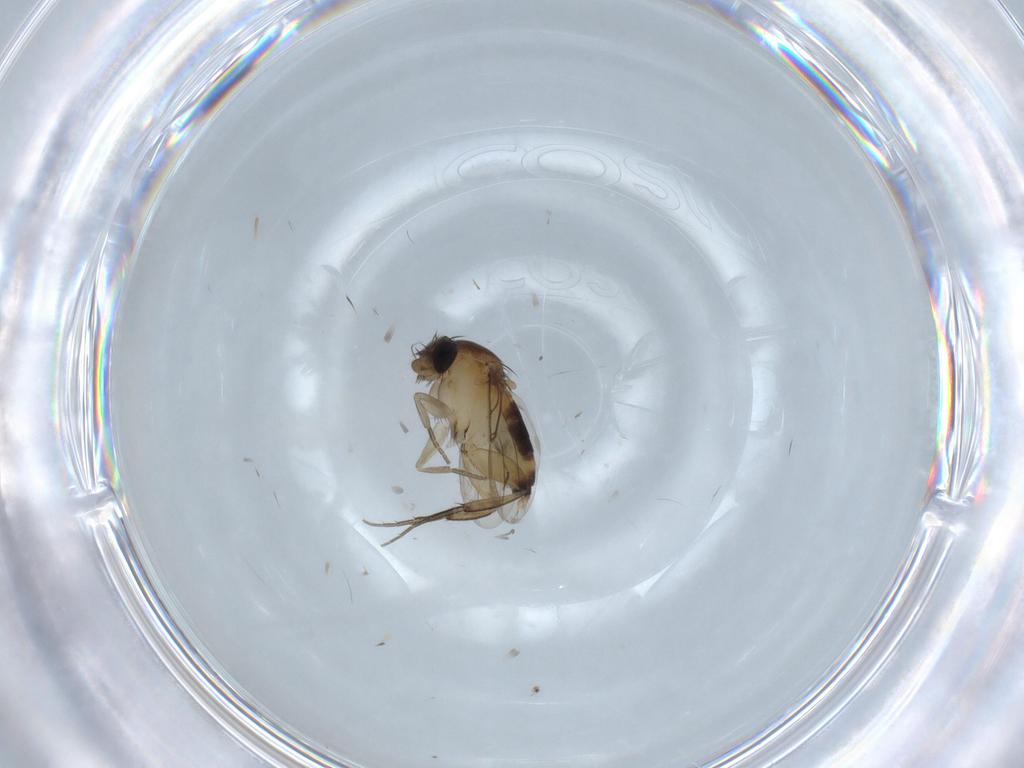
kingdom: Animalia
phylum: Arthropoda
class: Insecta
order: Diptera
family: Phoridae
